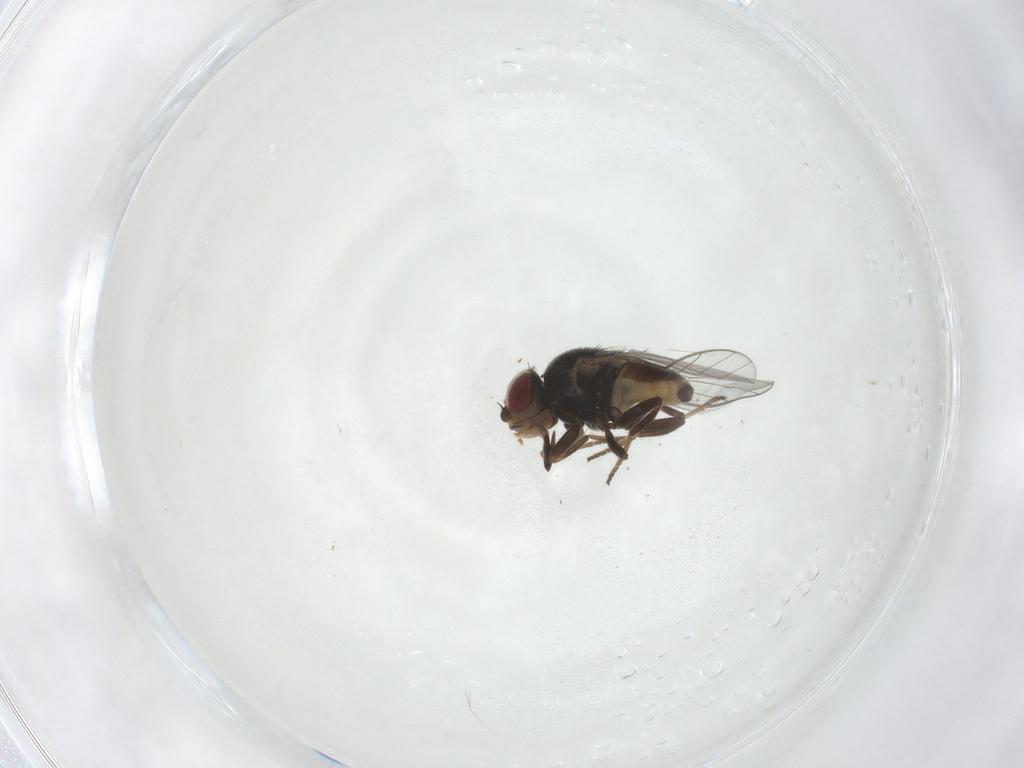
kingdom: Animalia
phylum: Arthropoda
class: Insecta
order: Diptera
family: Chloropidae
